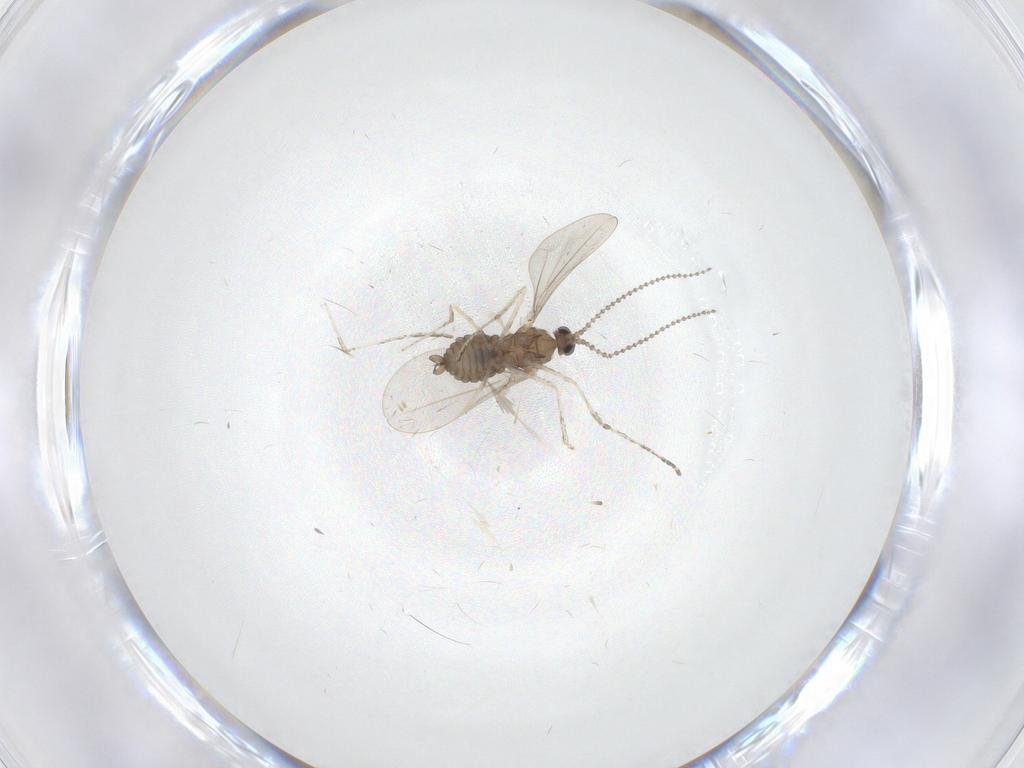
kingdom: Animalia
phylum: Arthropoda
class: Insecta
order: Diptera
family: Cecidomyiidae
